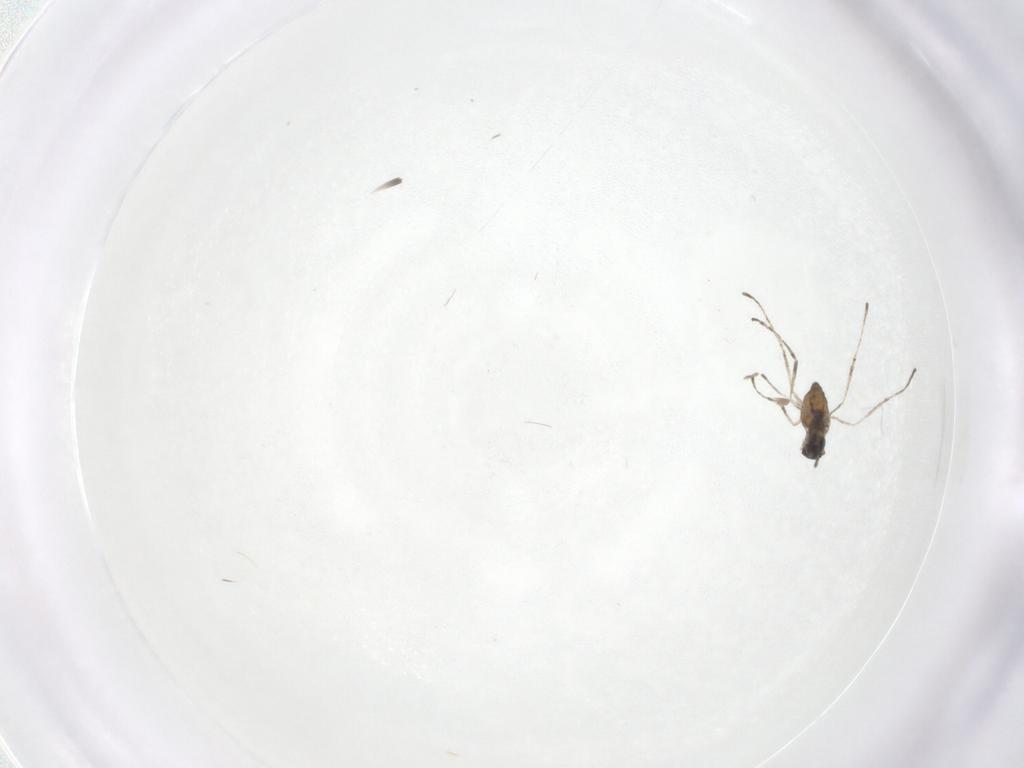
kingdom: Animalia
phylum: Arthropoda
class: Insecta
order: Diptera
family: Cecidomyiidae
